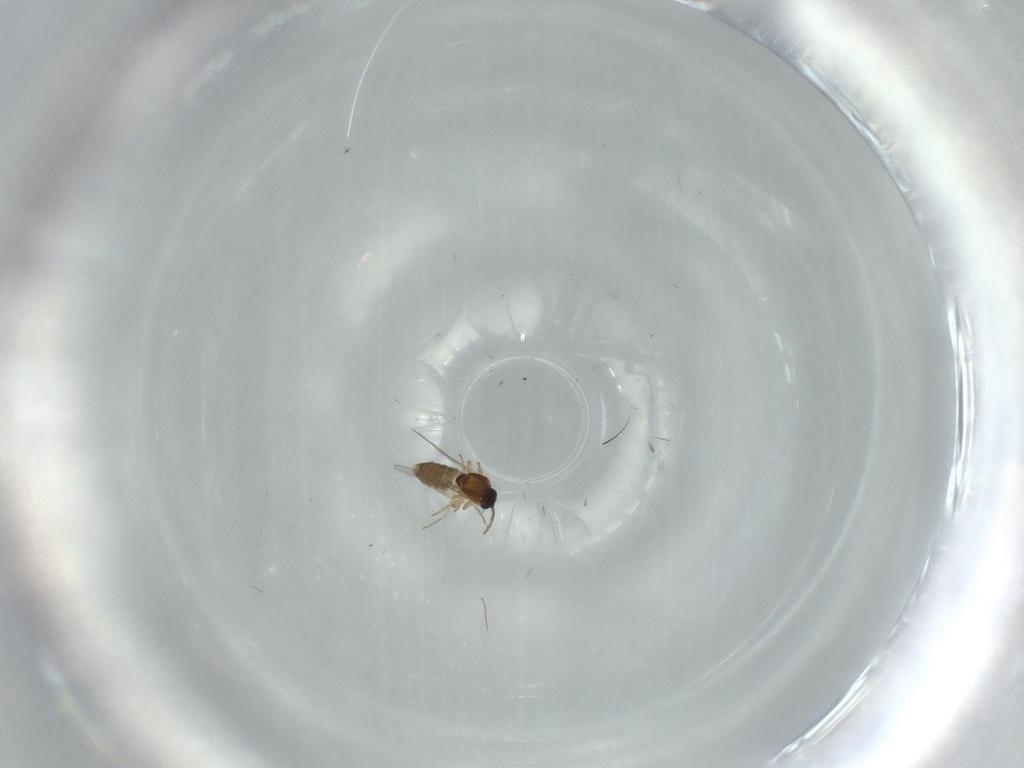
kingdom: Animalia
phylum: Arthropoda
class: Insecta
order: Diptera
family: Ceratopogonidae
